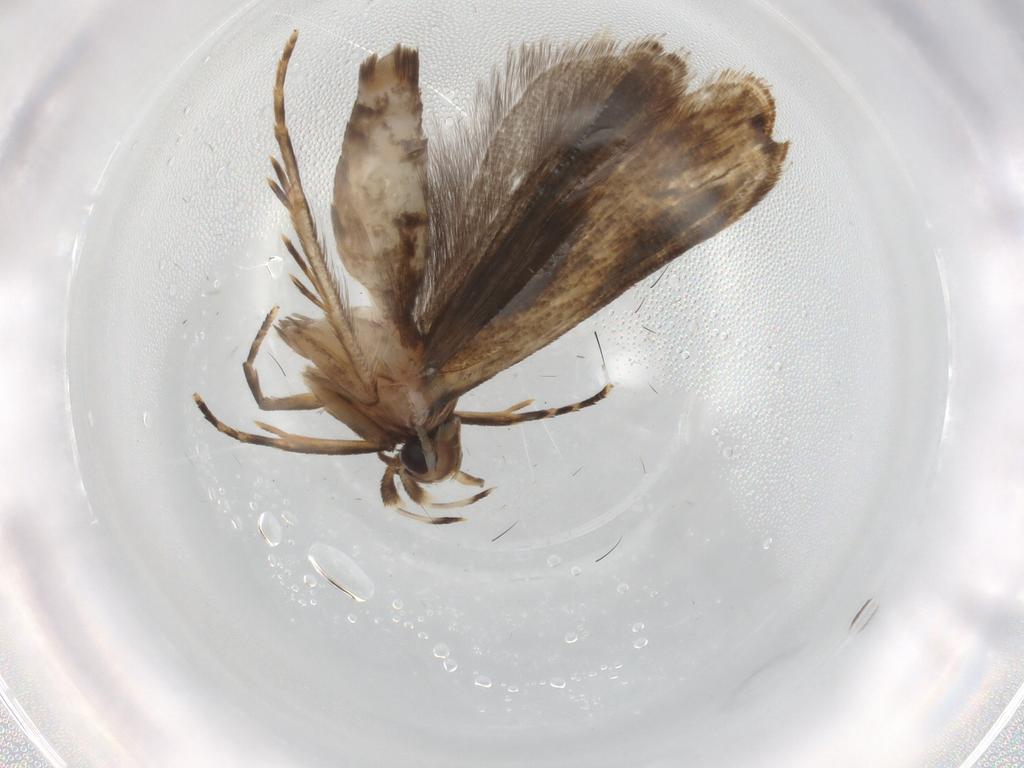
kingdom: Animalia
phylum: Arthropoda
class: Insecta
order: Lepidoptera
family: Gelechiidae
